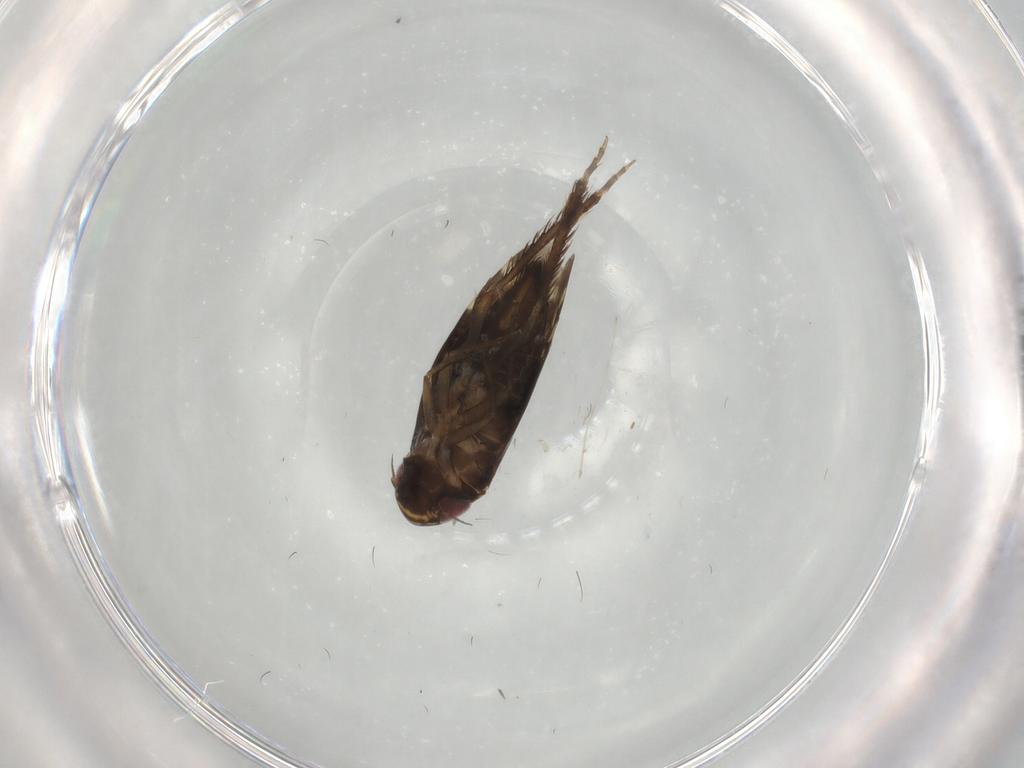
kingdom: Animalia
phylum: Arthropoda
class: Insecta
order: Hemiptera
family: Cicadellidae
